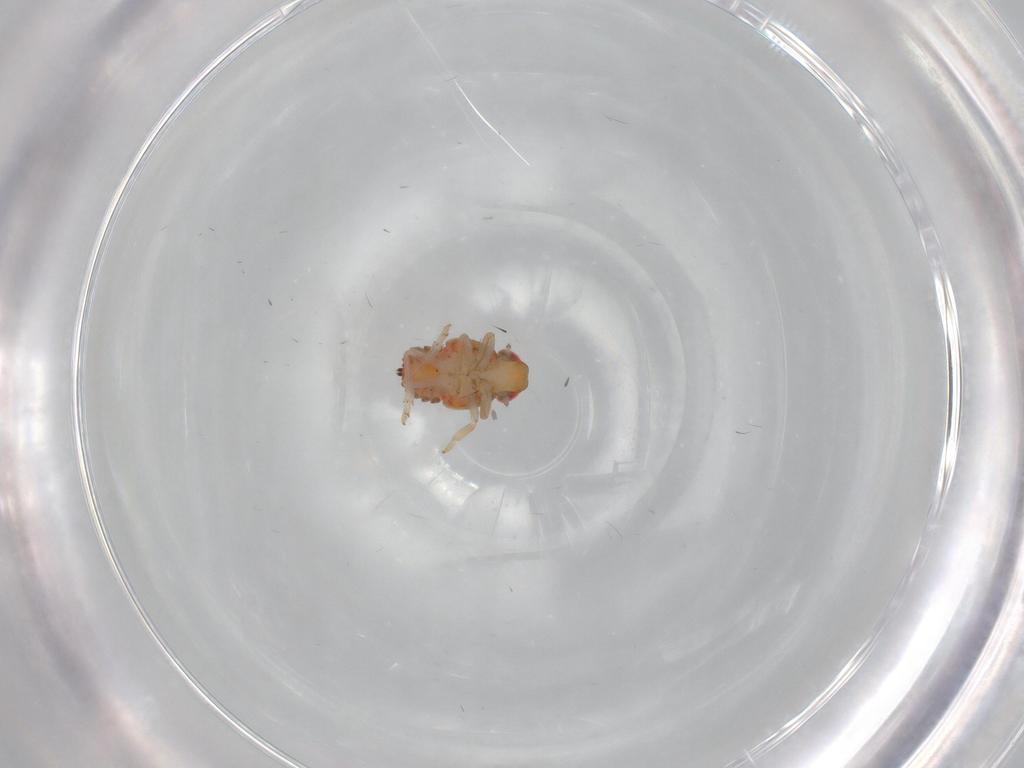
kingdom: Animalia
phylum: Arthropoda
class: Insecta
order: Hemiptera
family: Issidae
